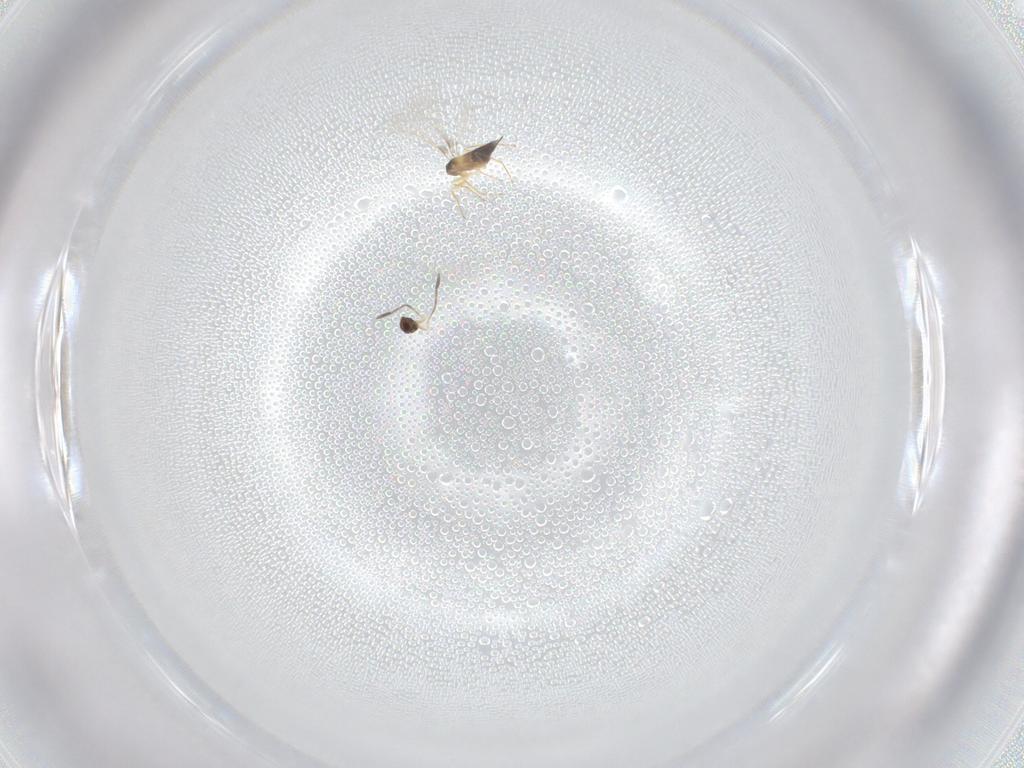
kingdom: Animalia
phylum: Arthropoda
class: Insecta
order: Hymenoptera
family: Mymaridae
